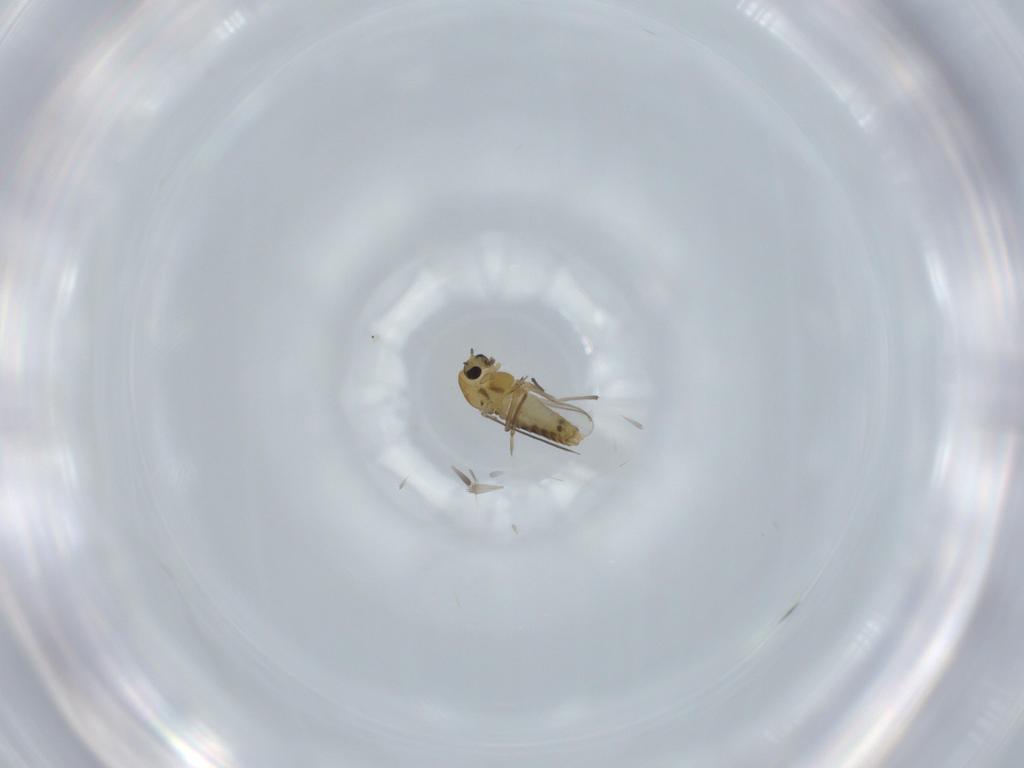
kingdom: Animalia
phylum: Arthropoda
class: Insecta
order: Diptera
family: Chironomidae
